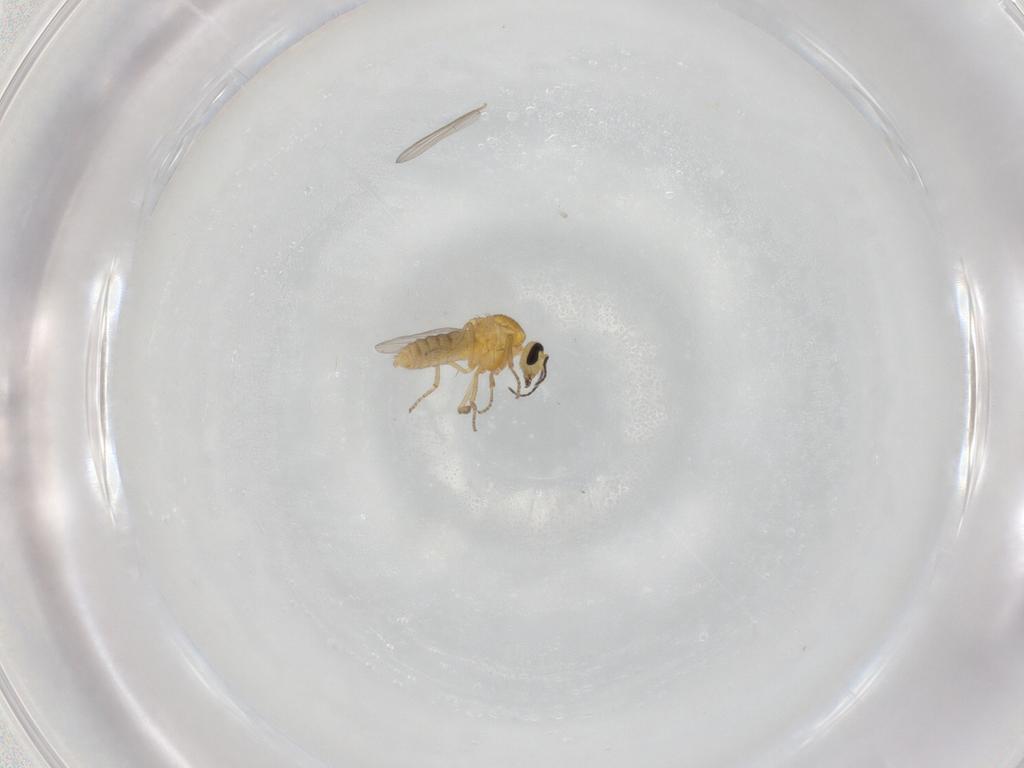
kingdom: Animalia
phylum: Arthropoda
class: Insecta
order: Diptera
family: Ceratopogonidae
